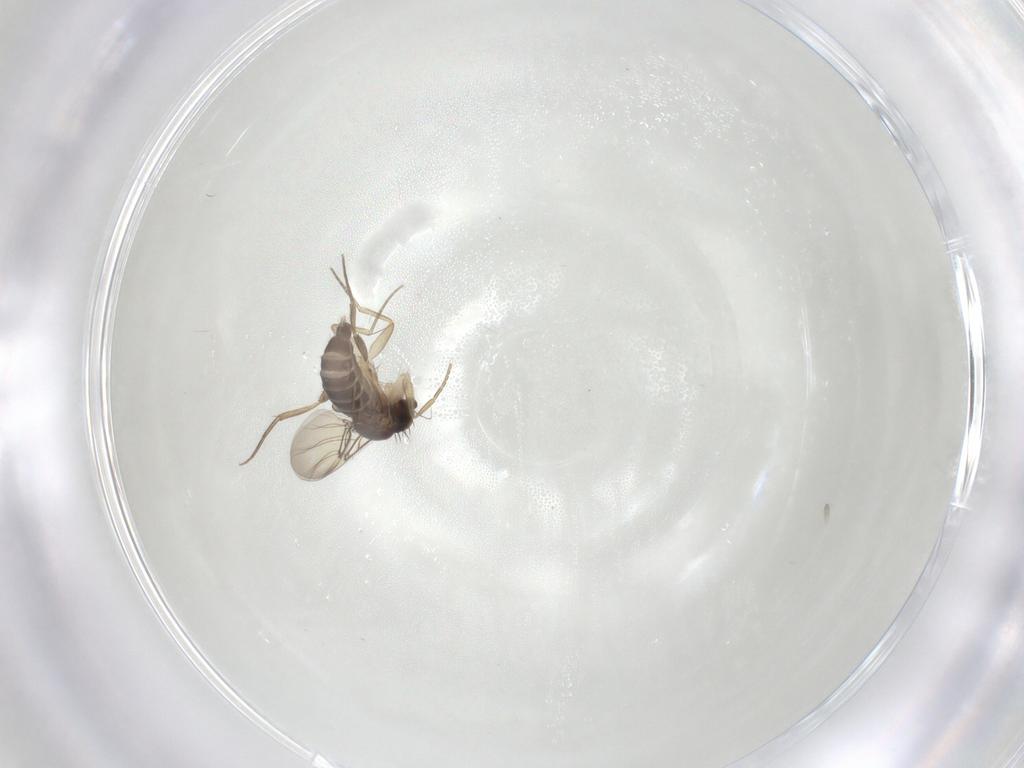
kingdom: Animalia
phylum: Arthropoda
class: Insecta
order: Diptera
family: Phoridae
